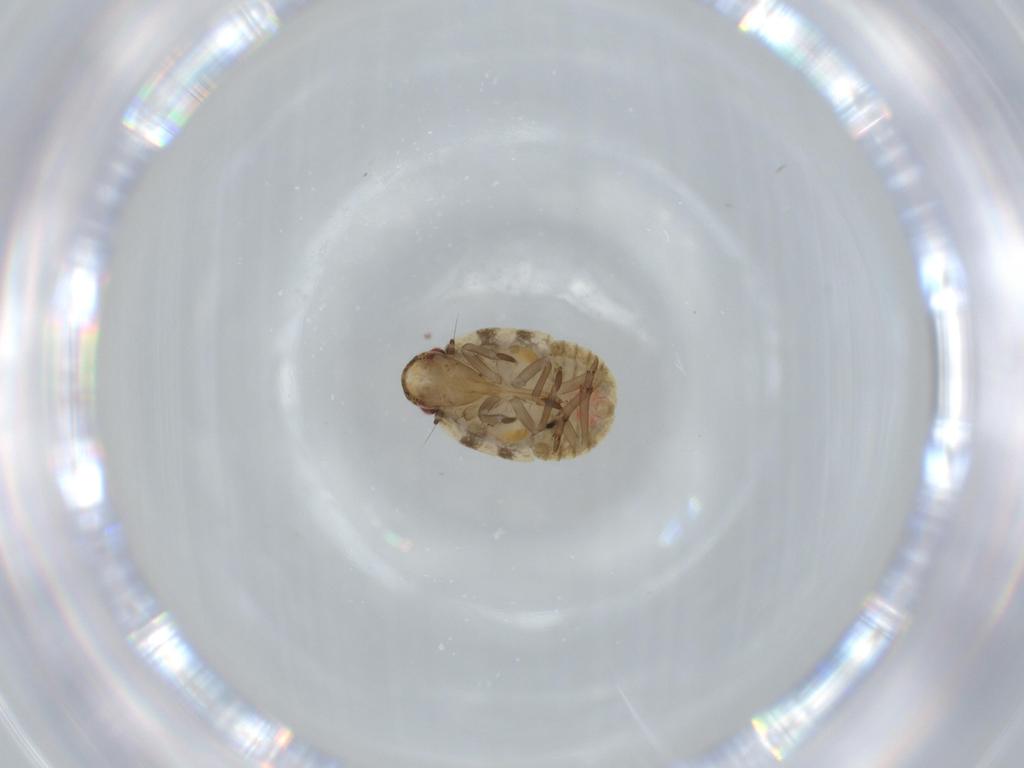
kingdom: Animalia
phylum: Arthropoda
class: Insecta
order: Hemiptera
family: Flatidae
